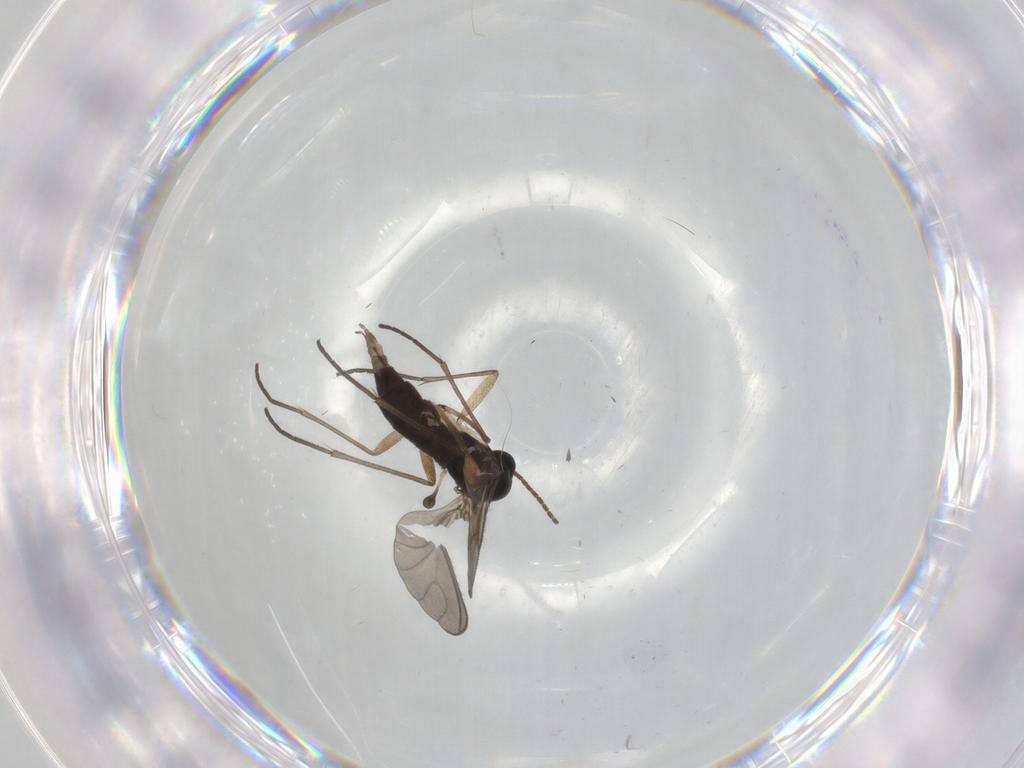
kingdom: Animalia
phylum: Arthropoda
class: Insecta
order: Diptera
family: Sciaridae
